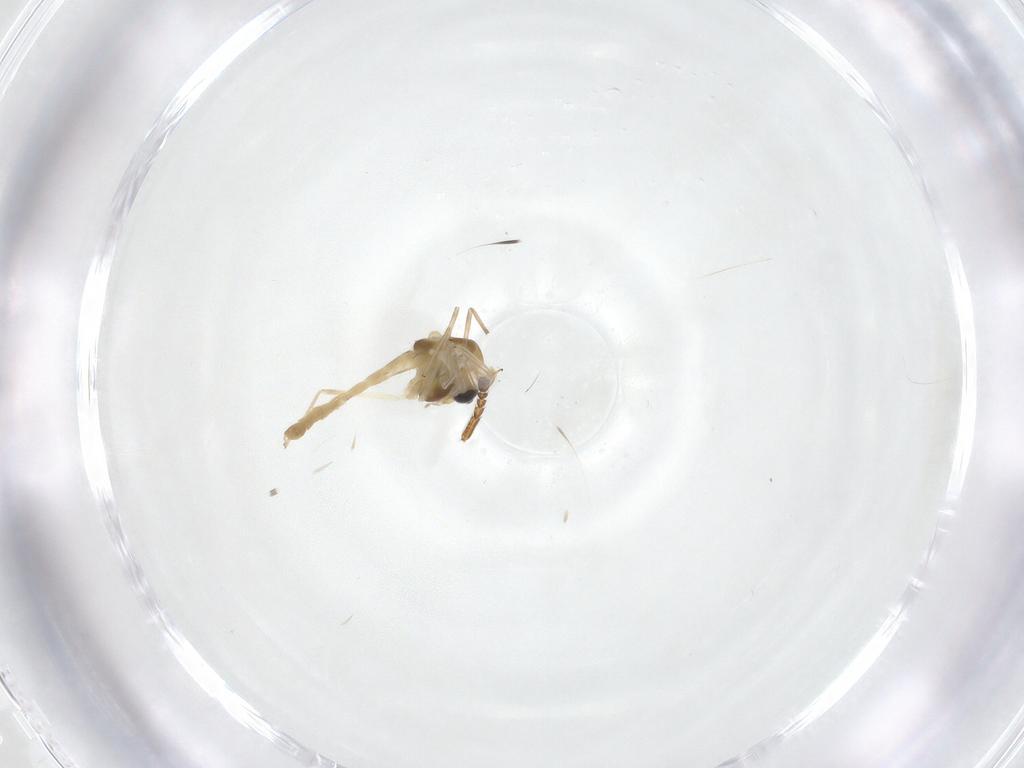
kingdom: Animalia
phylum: Arthropoda
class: Insecta
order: Diptera
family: Chironomidae
